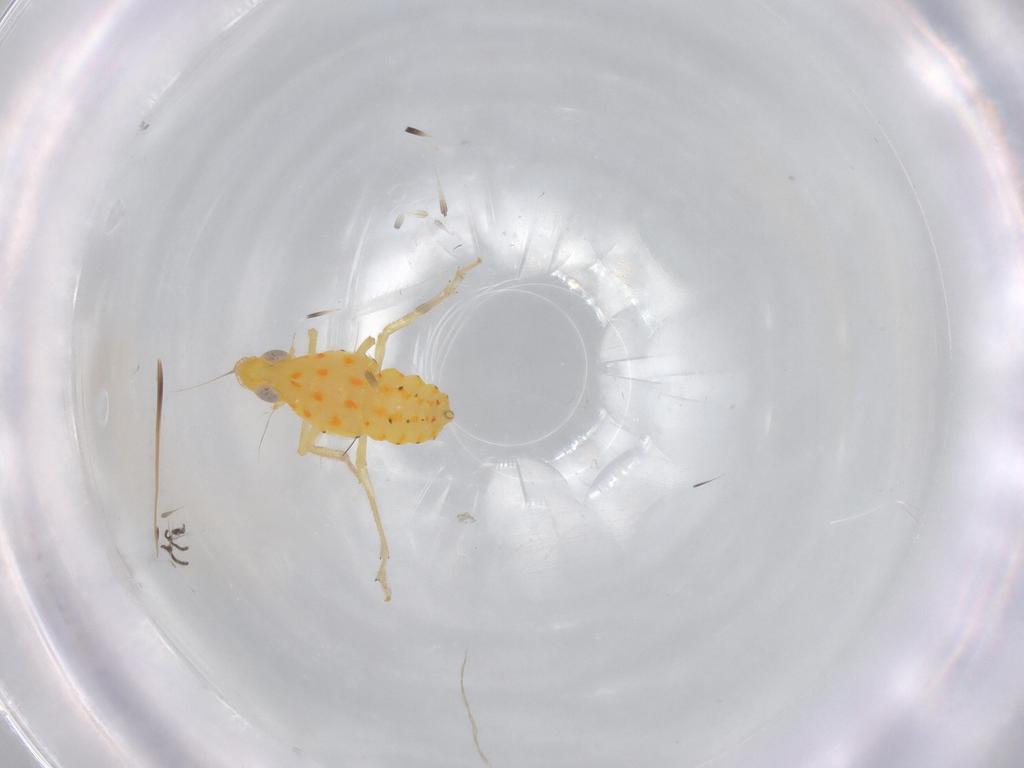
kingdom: Animalia
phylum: Arthropoda
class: Insecta
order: Hemiptera
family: Tropiduchidae
